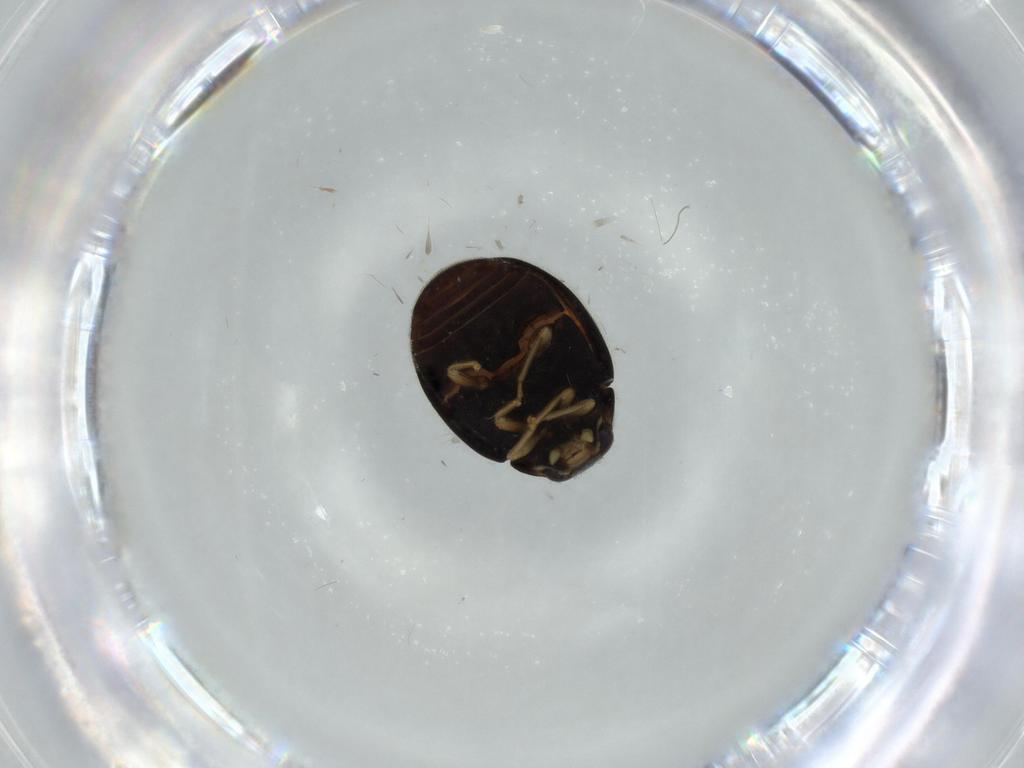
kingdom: Animalia
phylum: Arthropoda
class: Insecta
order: Coleoptera
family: Coccinellidae
